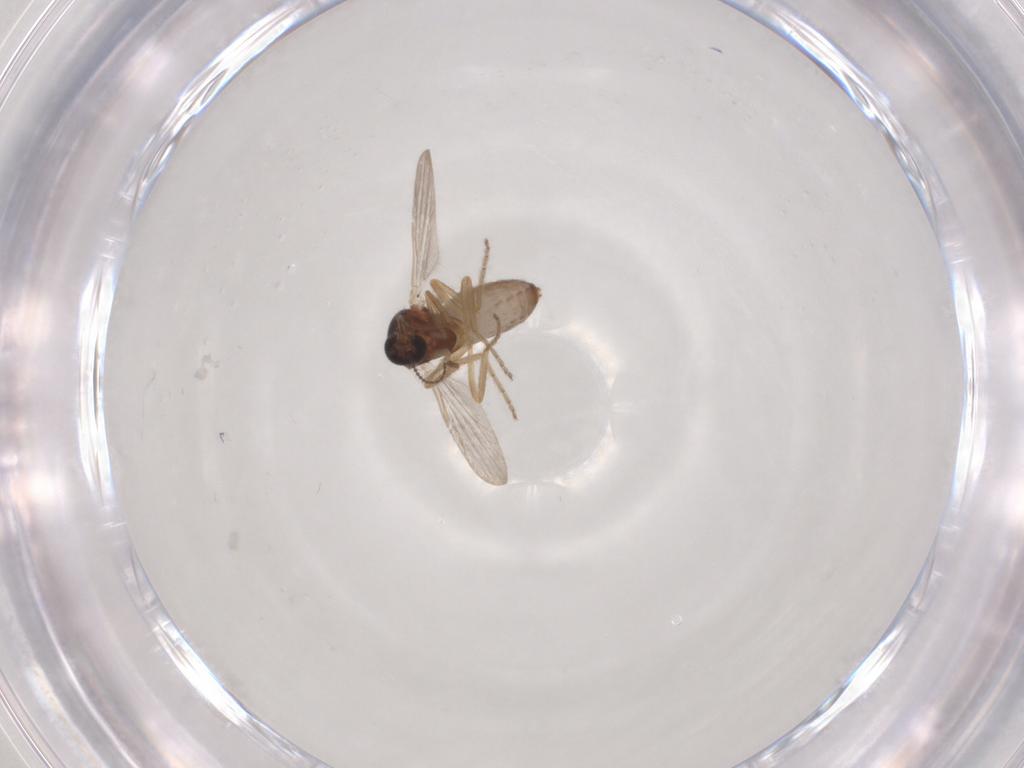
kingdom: Animalia
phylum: Arthropoda
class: Insecta
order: Diptera
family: Ceratopogonidae
